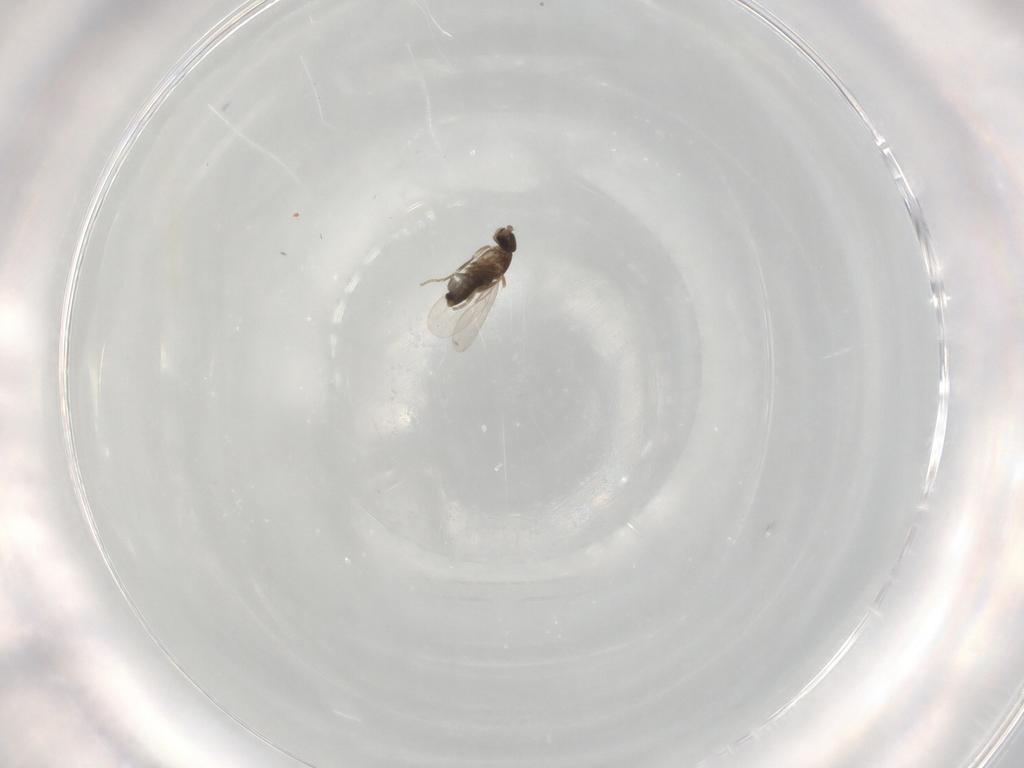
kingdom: Animalia
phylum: Arthropoda
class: Insecta
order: Diptera
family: Phoridae
